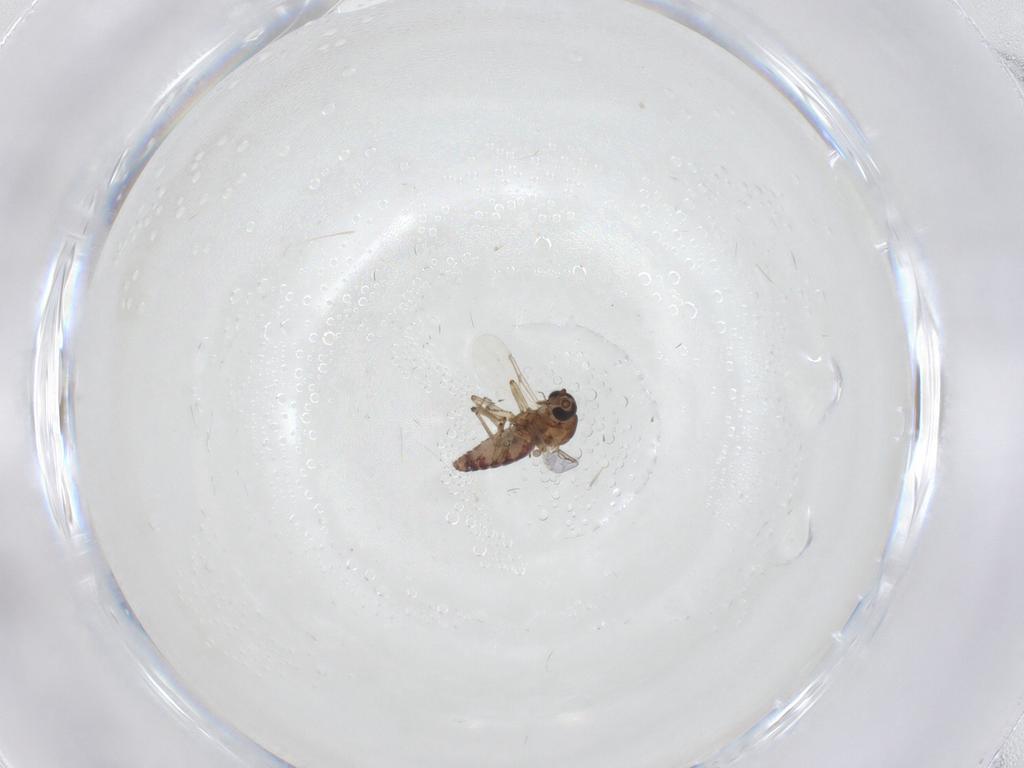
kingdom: Animalia
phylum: Arthropoda
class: Insecta
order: Diptera
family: Ceratopogonidae
